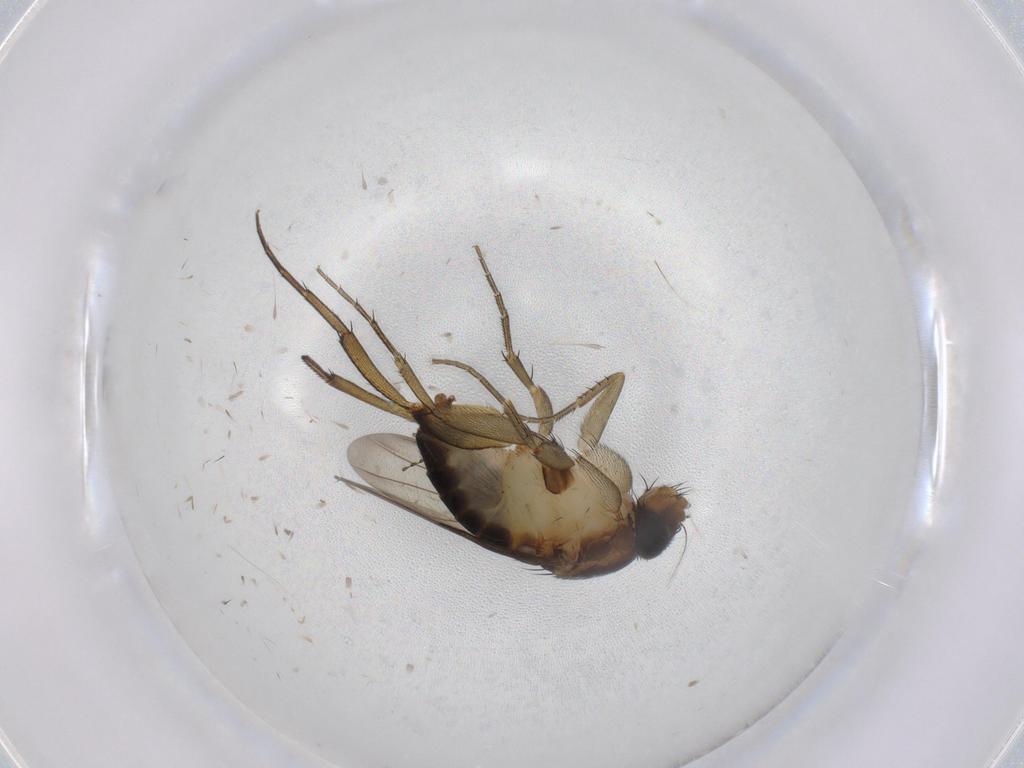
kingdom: Animalia
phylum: Arthropoda
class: Insecta
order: Diptera
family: Phoridae
